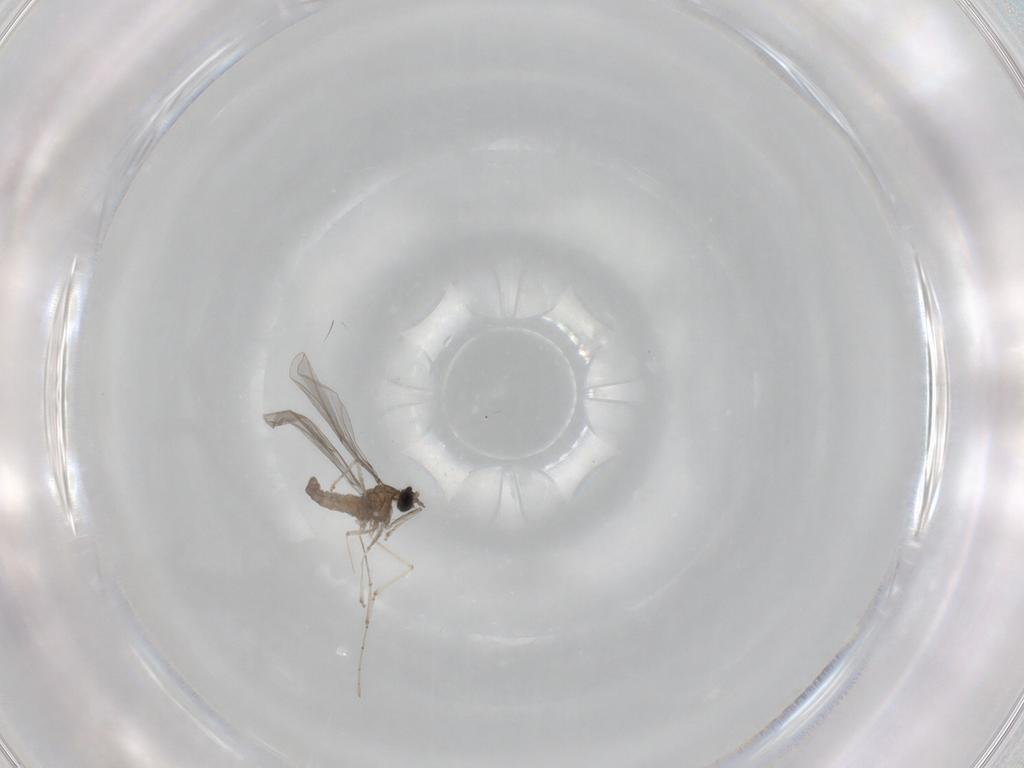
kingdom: Animalia
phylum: Arthropoda
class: Insecta
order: Diptera
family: Cecidomyiidae
